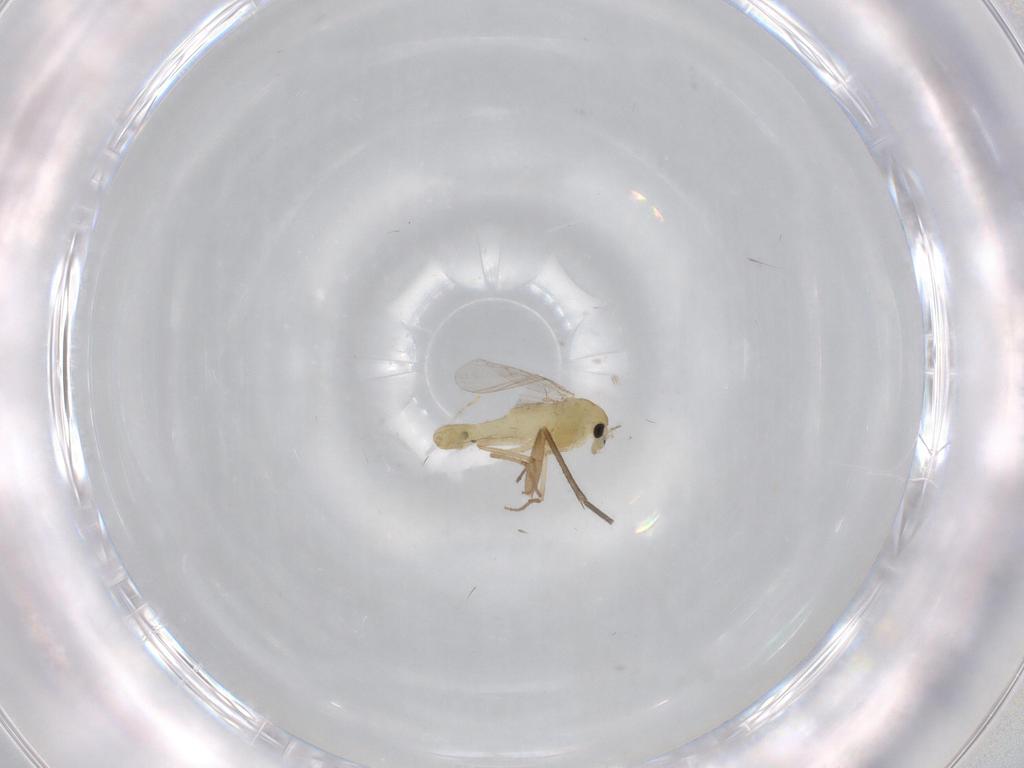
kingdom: Animalia
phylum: Arthropoda
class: Insecta
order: Diptera
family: Chironomidae
